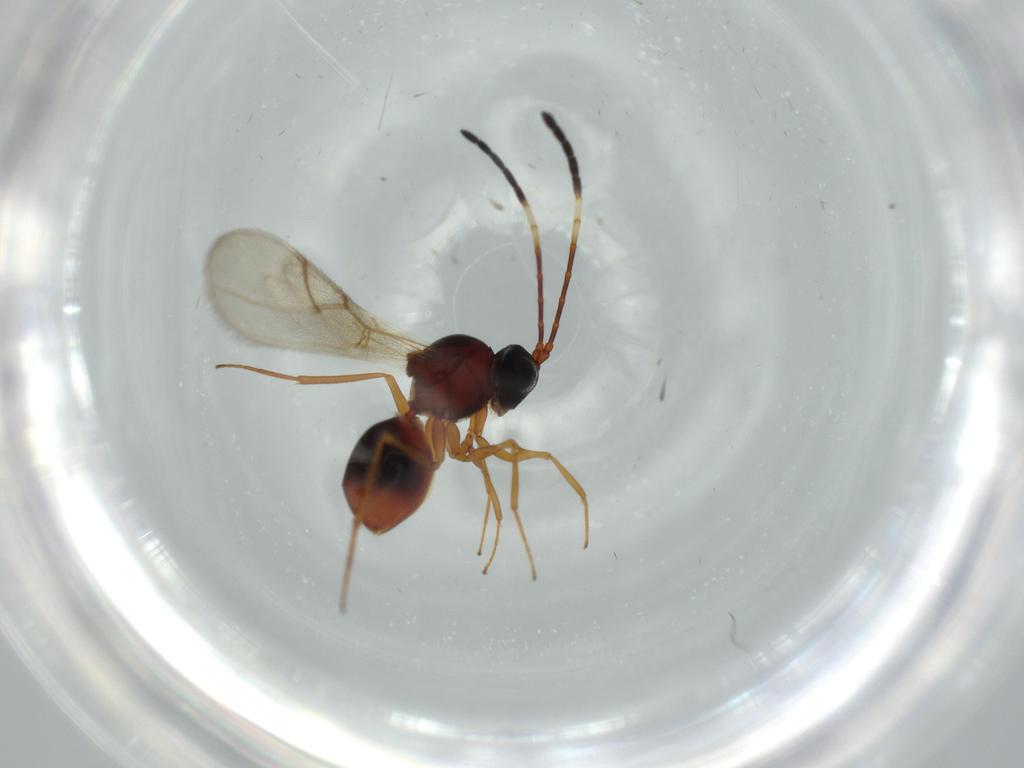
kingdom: Animalia
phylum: Arthropoda
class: Insecta
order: Hymenoptera
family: Figitidae
